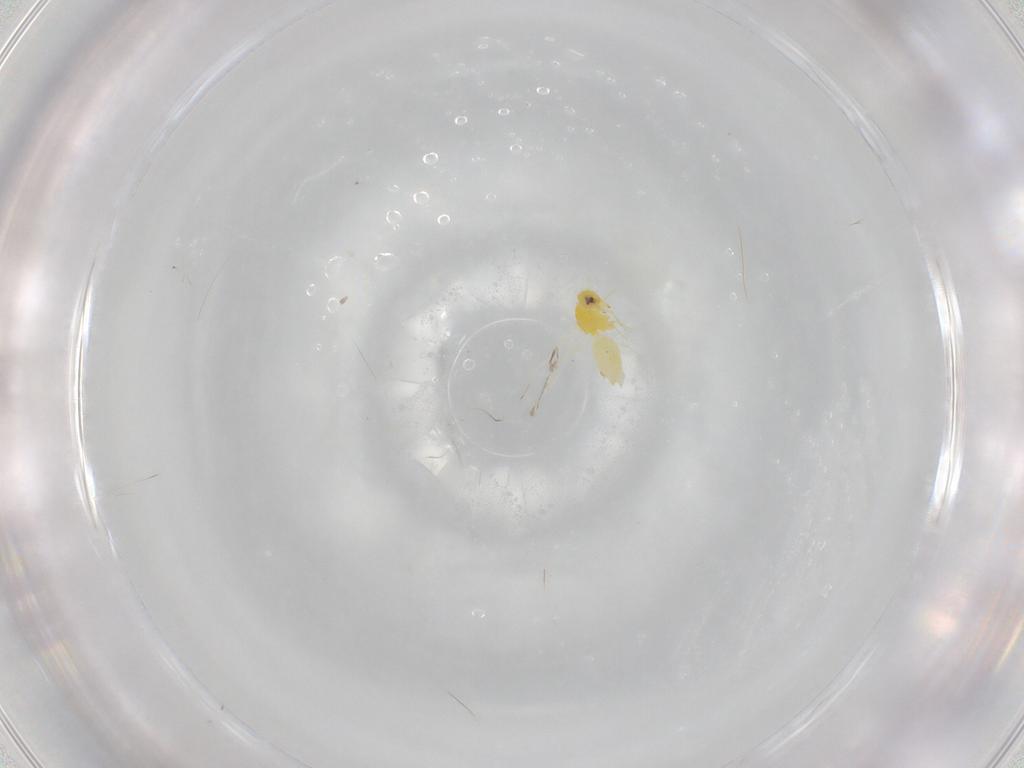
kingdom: Animalia
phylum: Arthropoda
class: Insecta
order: Hemiptera
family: Aleyrodidae
